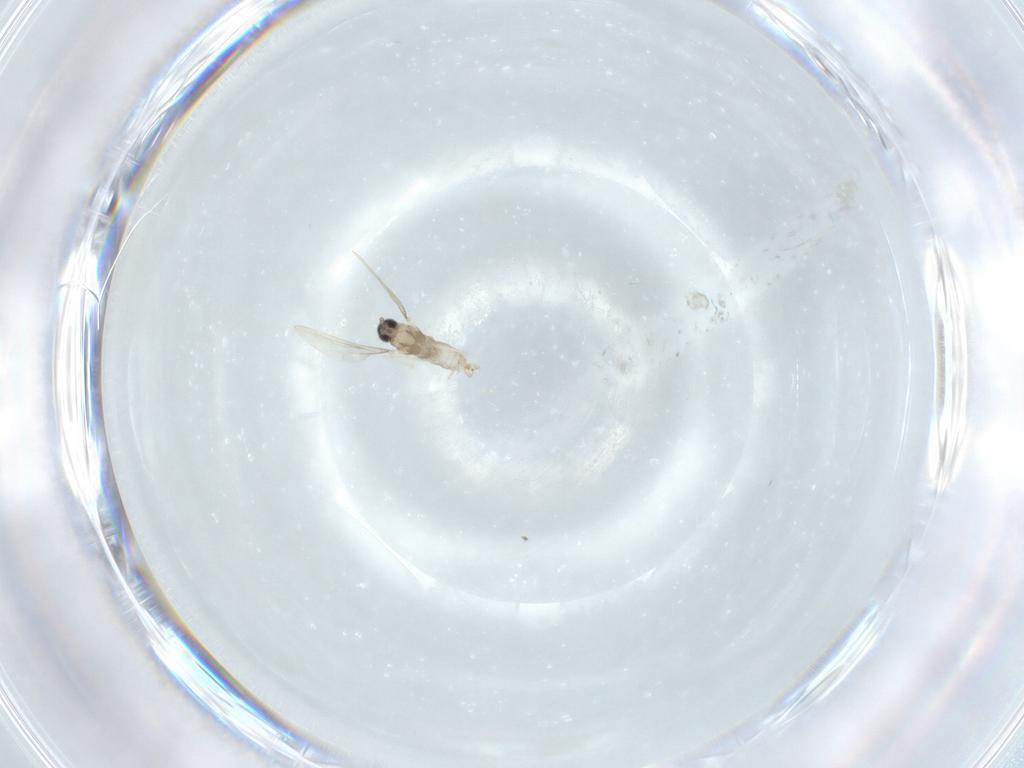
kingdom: Animalia
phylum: Arthropoda
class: Insecta
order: Diptera
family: Cecidomyiidae
